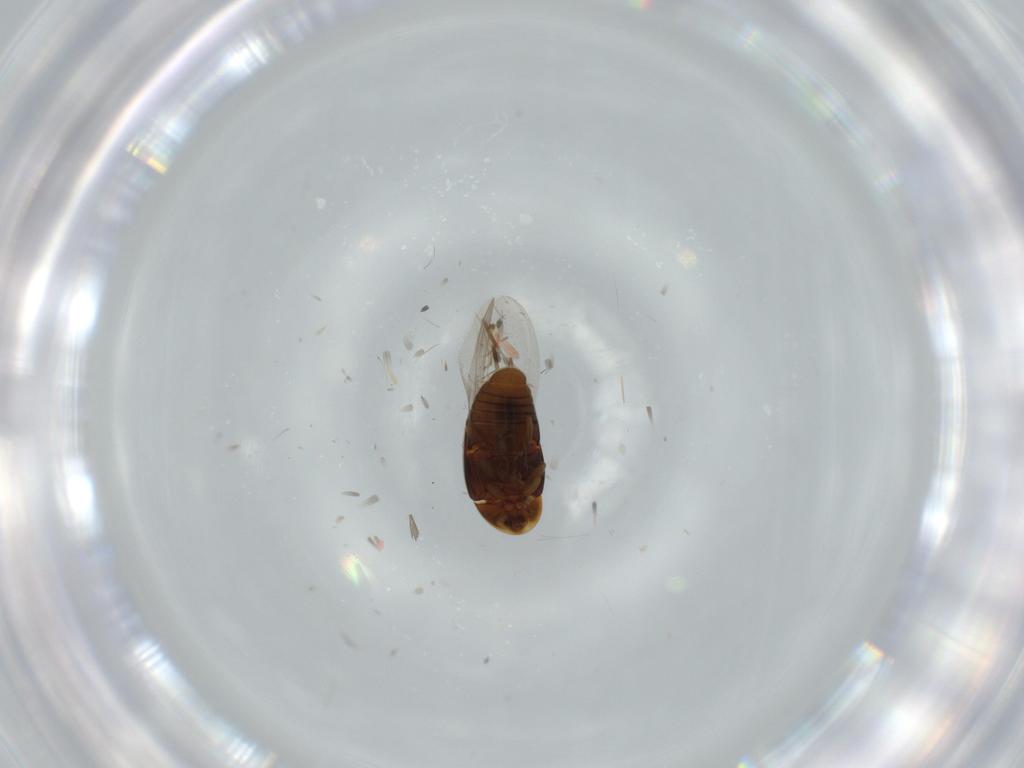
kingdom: Animalia
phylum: Arthropoda
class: Insecta
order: Coleoptera
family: Corylophidae
